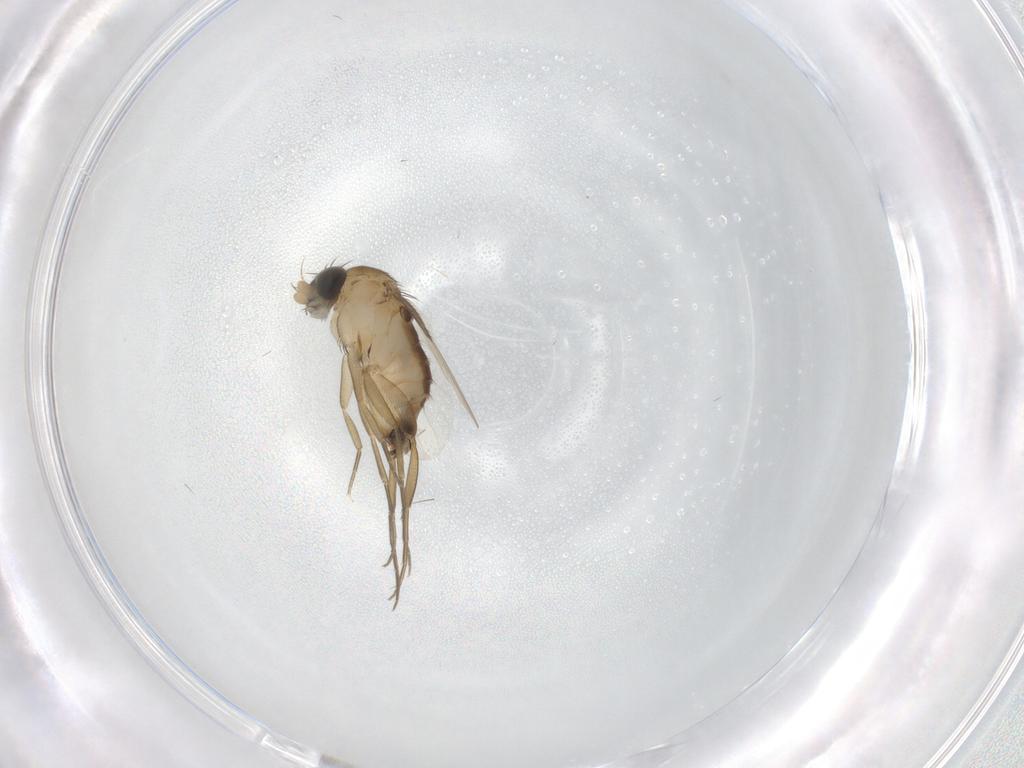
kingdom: Animalia
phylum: Arthropoda
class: Insecta
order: Diptera
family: Phoridae
